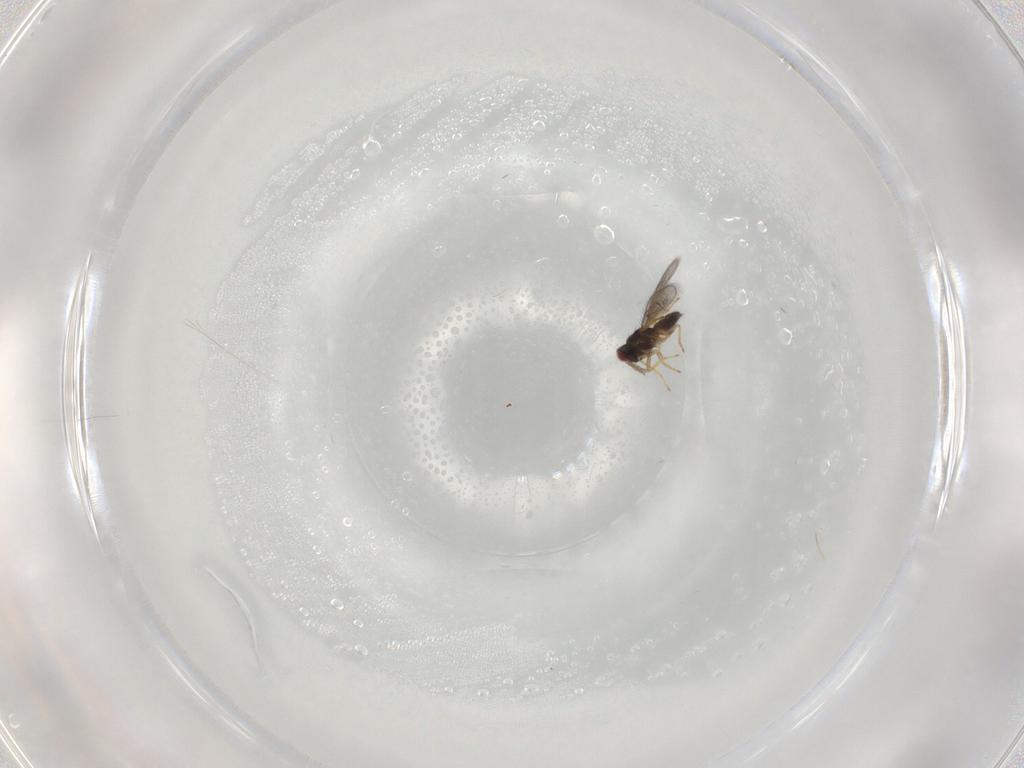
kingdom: Animalia
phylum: Arthropoda
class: Insecta
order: Hymenoptera
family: Eulophidae
